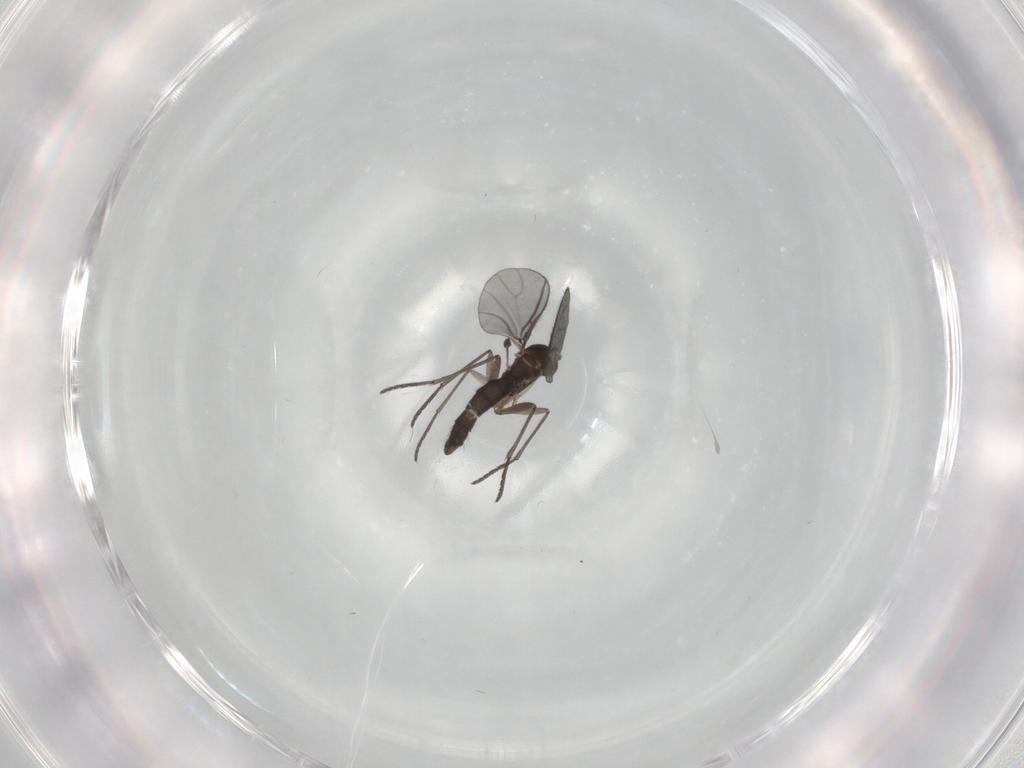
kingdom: Animalia
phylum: Arthropoda
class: Insecta
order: Diptera
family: Sciaridae
